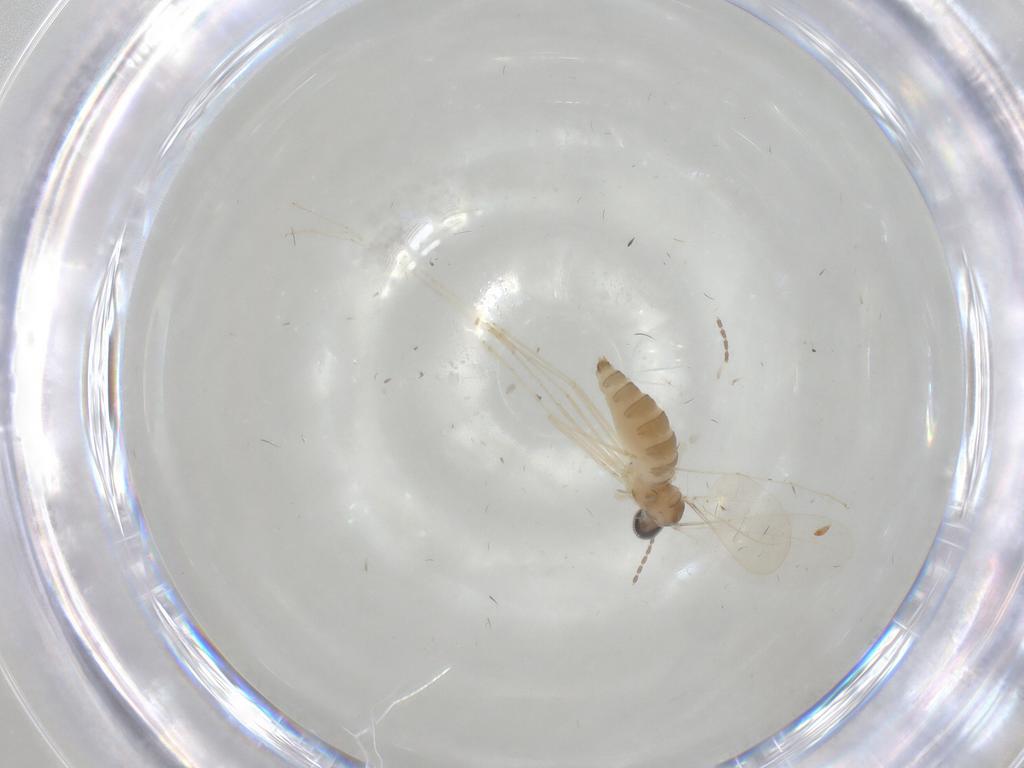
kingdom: Animalia
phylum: Arthropoda
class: Insecta
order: Diptera
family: Cecidomyiidae
